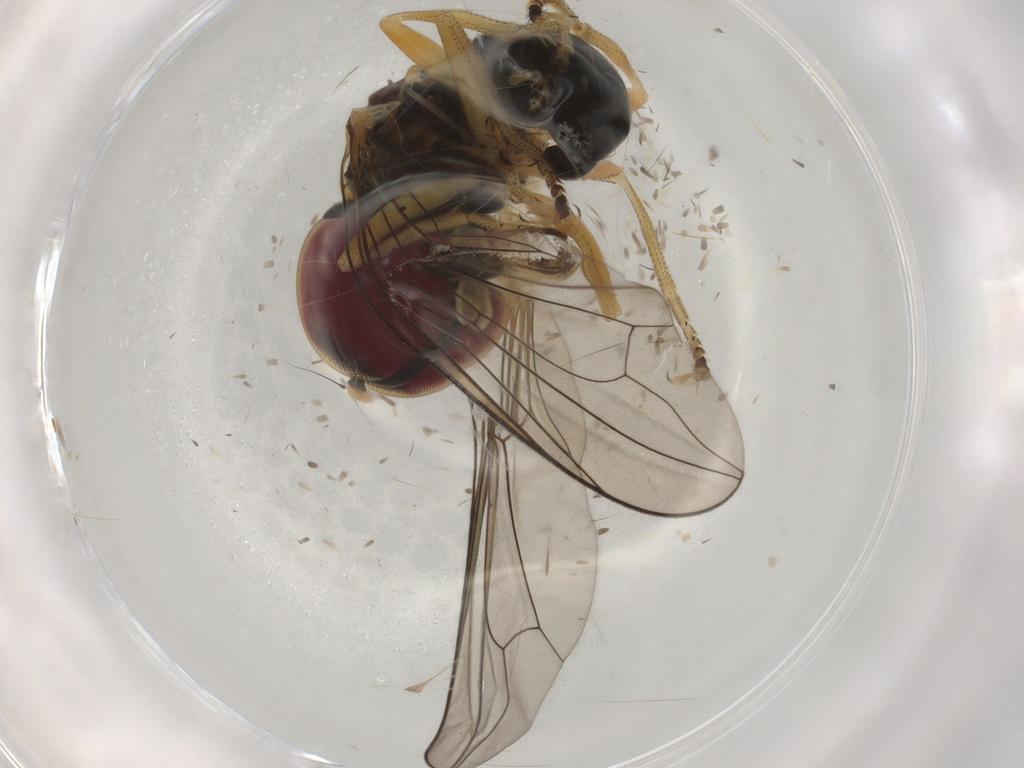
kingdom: Animalia
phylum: Arthropoda
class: Insecta
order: Diptera
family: Pipunculidae
